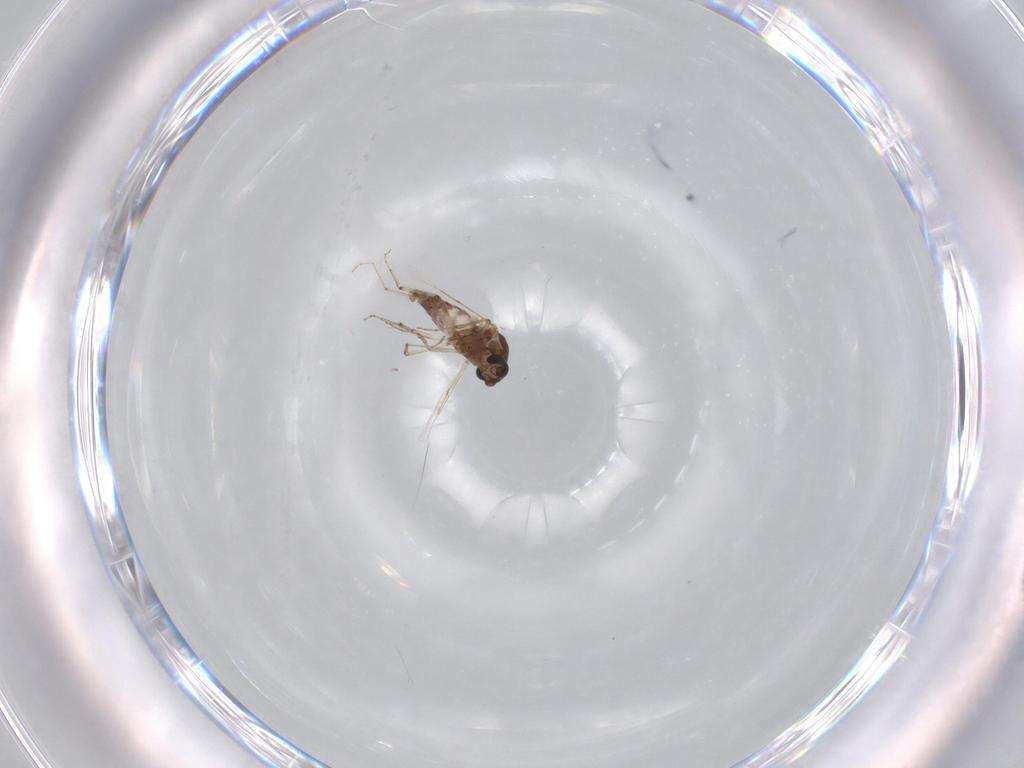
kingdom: Animalia
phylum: Arthropoda
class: Insecta
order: Diptera
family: Ceratopogonidae
